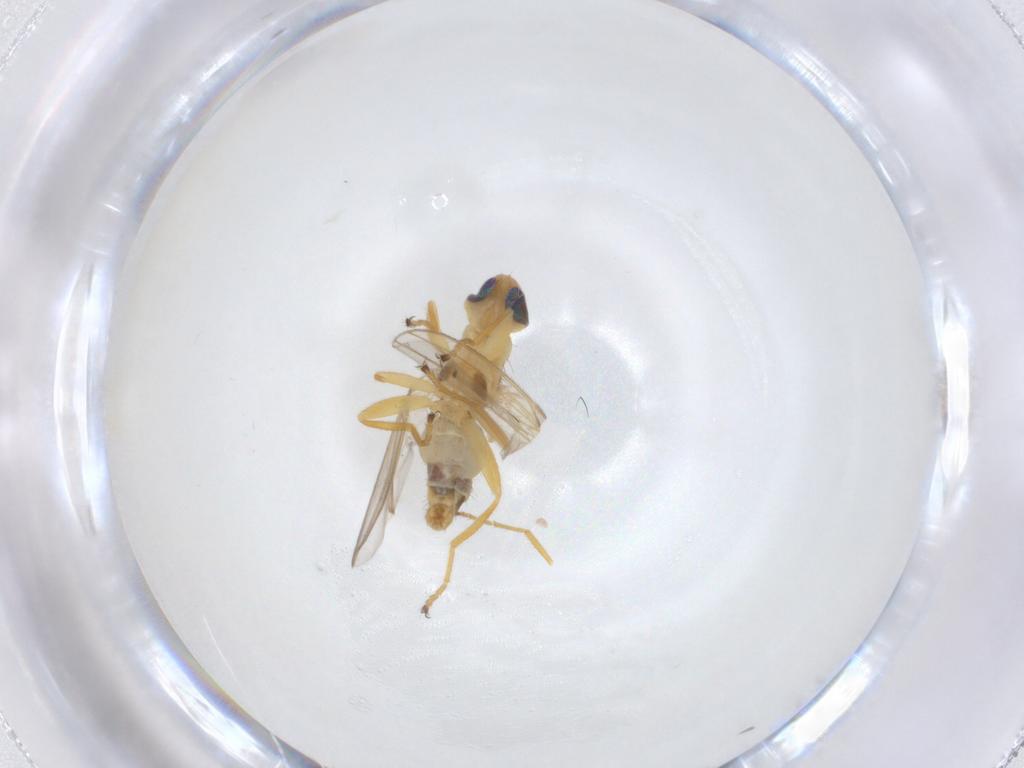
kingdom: Animalia
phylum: Arthropoda
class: Insecta
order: Diptera
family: Chyromyidae
